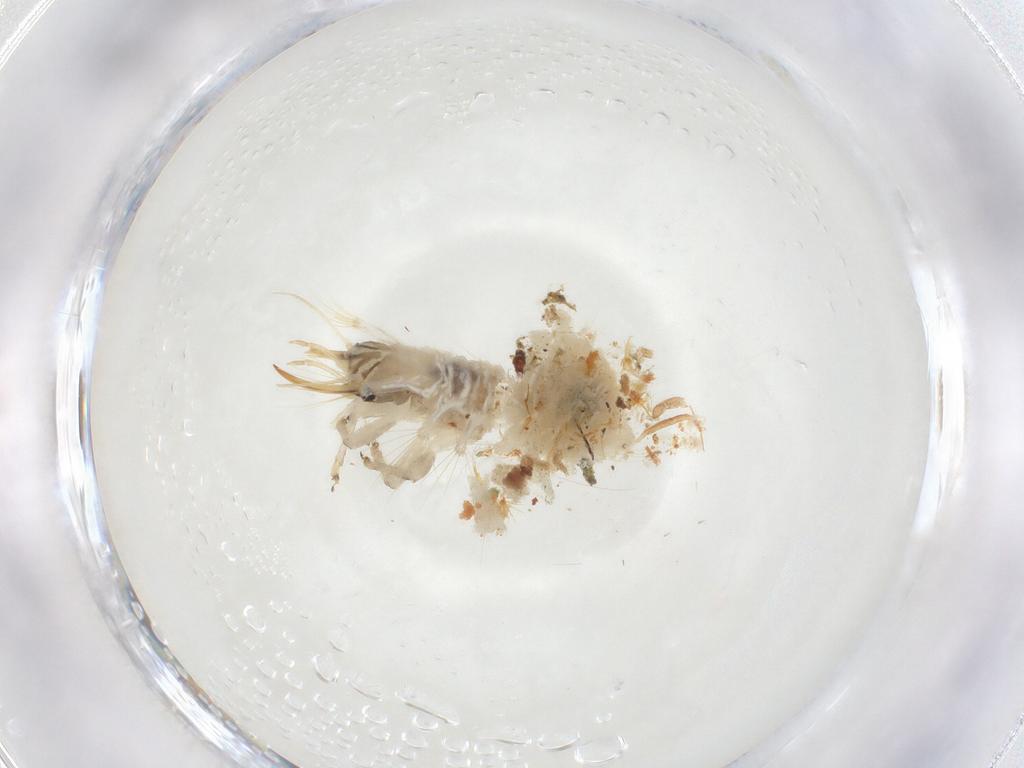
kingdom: Animalia
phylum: Arthropoda
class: Insecta
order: Neuroptera
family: Chrysopidae
